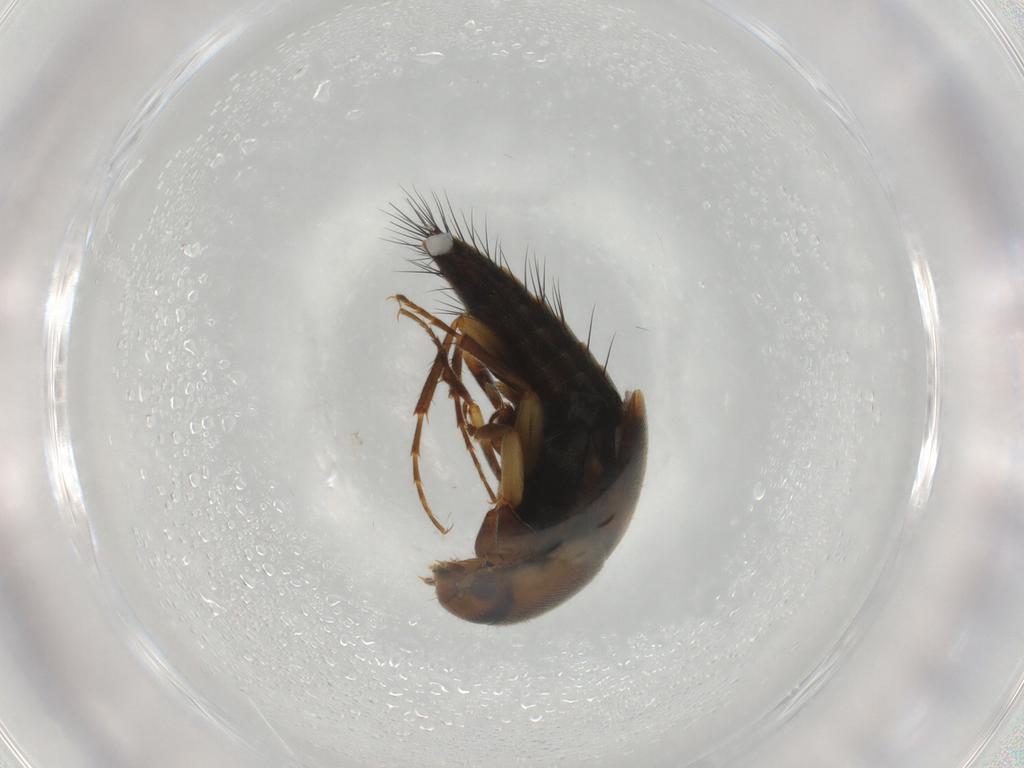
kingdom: Animalia
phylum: Arthropoda
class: Insecta
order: Coleoptera
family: Staphylinidae
